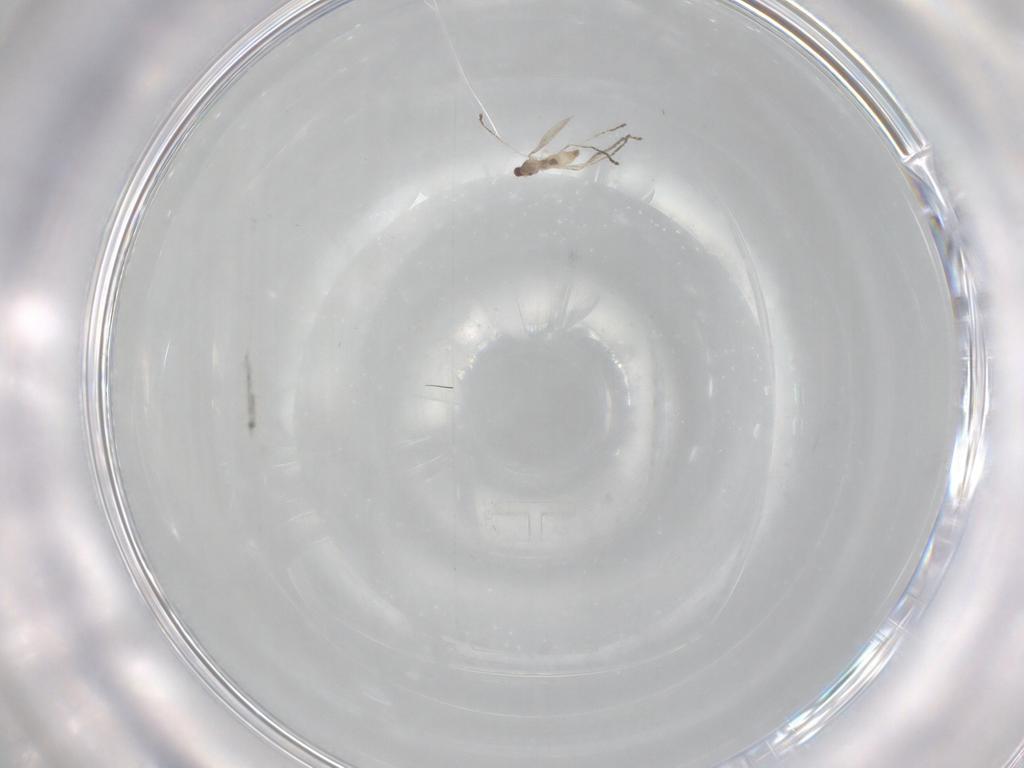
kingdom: Animalia
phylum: Arthropoda
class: Insecta
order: Diptera
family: Cecidomyiidae
